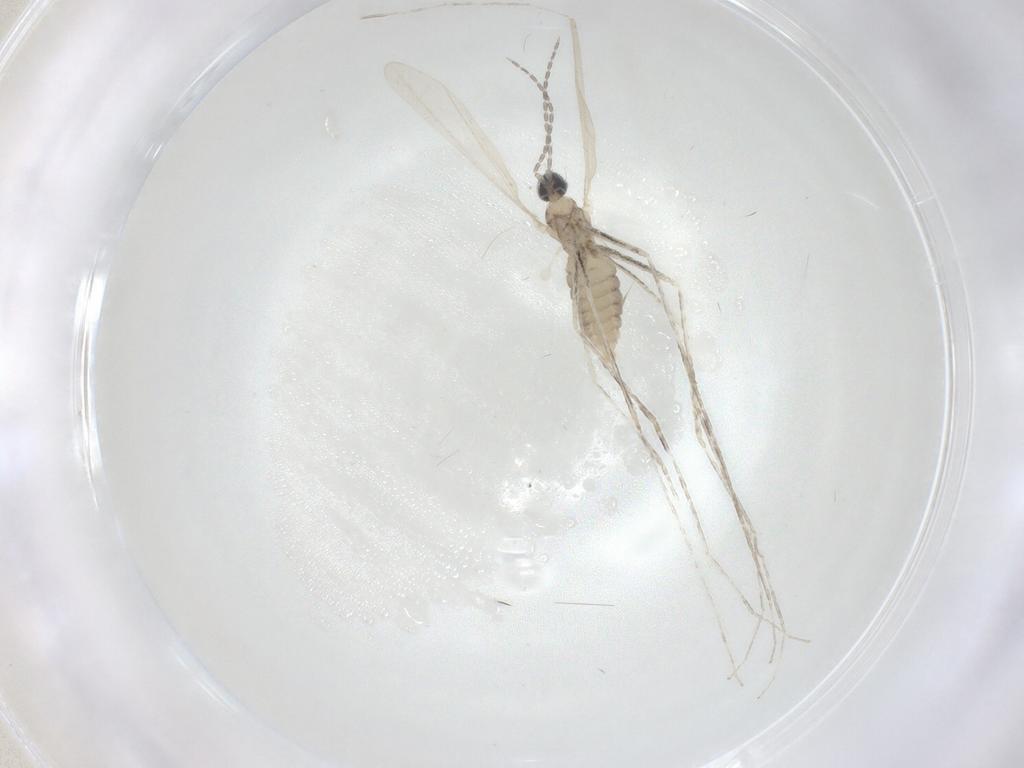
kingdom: Animalia
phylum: Arthropoda
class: Insecta
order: Diptera
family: Cecidomyiidae
